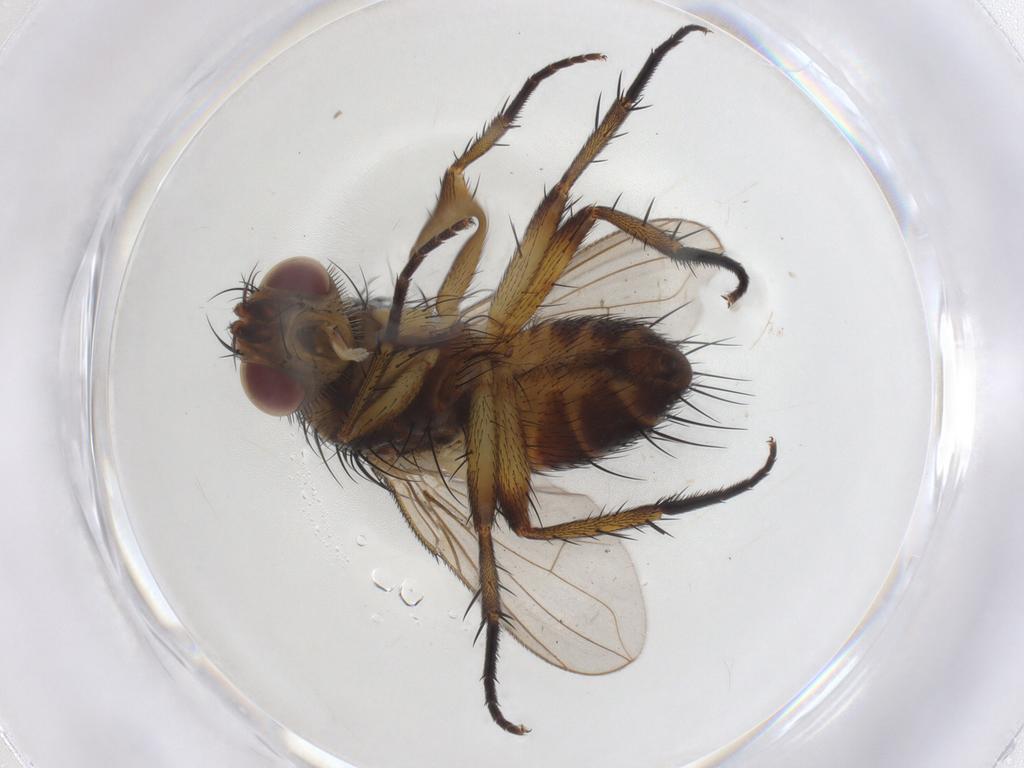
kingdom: Animalia
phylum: Arthropoda
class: Insecta
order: Diptera
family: Tachinidae
